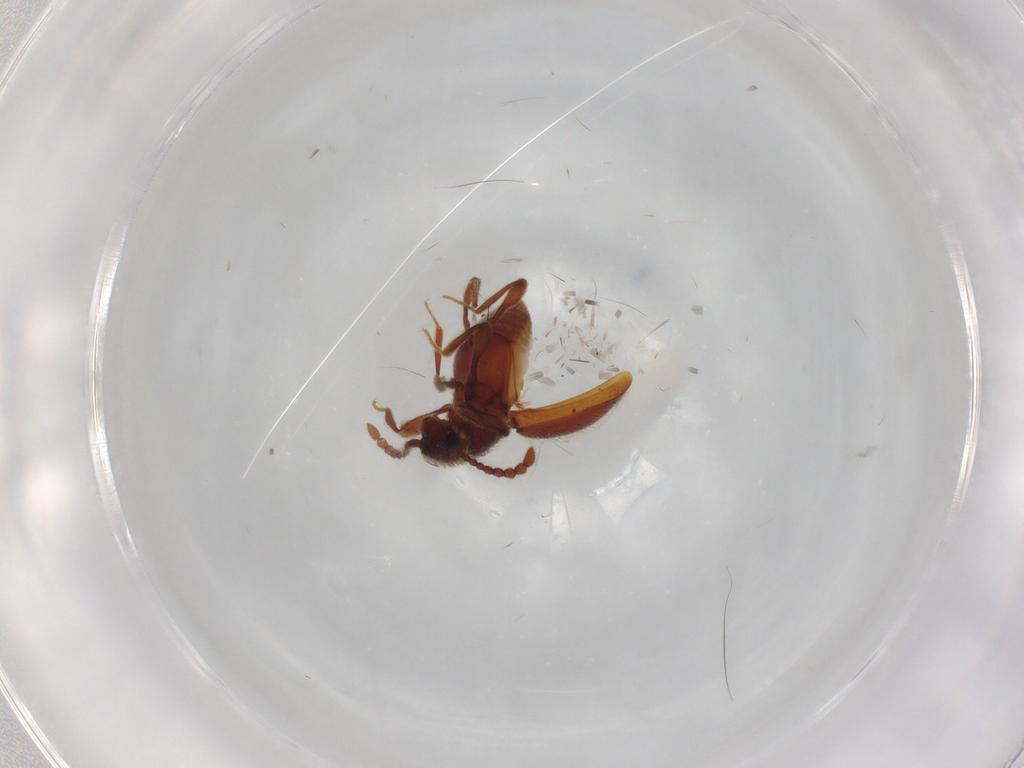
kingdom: Animalia
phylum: Arthropoda
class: Insecta
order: Coleoptera
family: Staphylinidae
